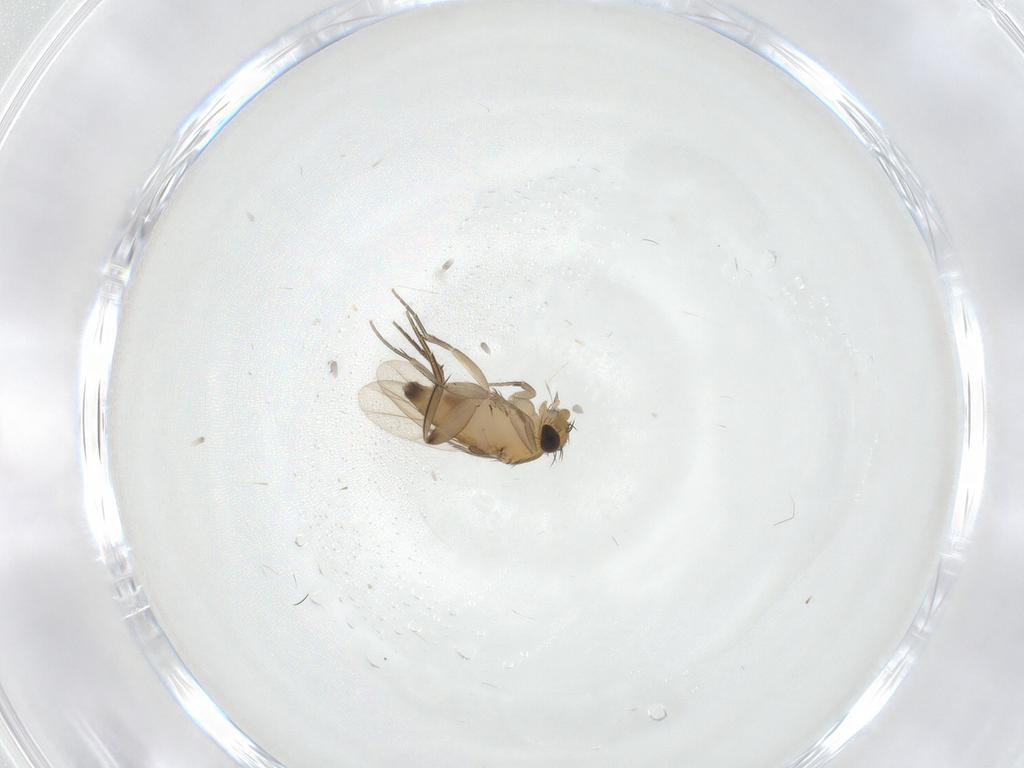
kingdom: Animalia
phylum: Arthropoda
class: Insecta
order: Diptera
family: Phoridae
